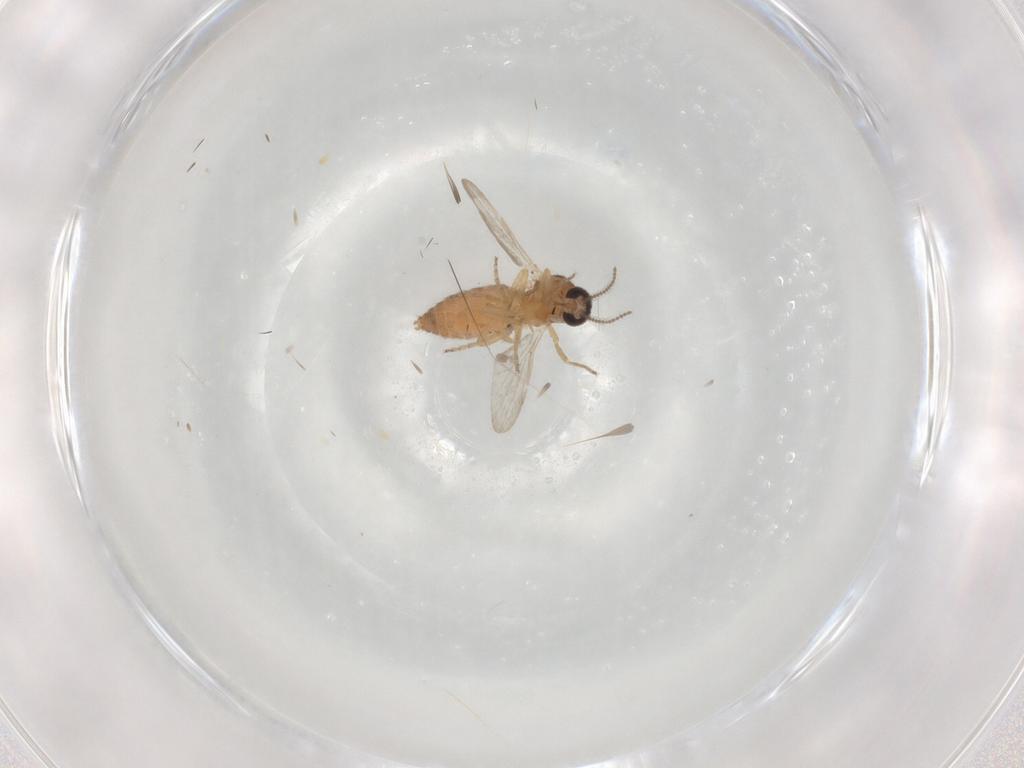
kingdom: Animalia
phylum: Arthropoda
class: Insecta
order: Diptera
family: Ceratopogonidae
